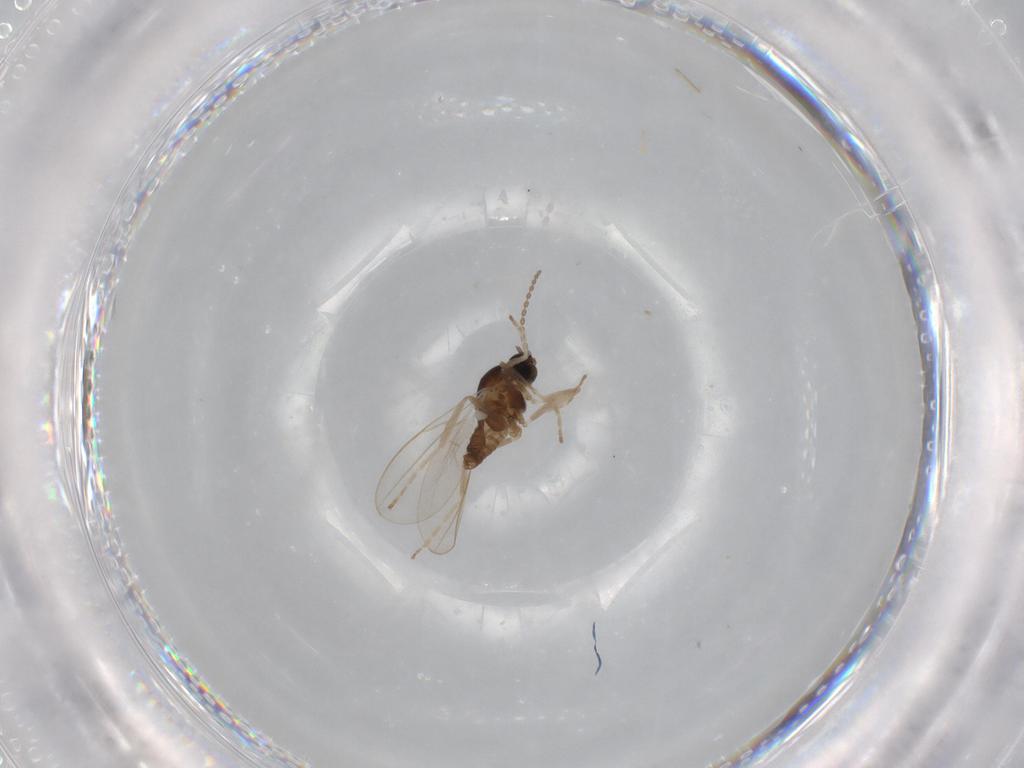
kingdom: Animalia
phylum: Arthropoda
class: Insecta
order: Diptera
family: Cecidomyiidae
